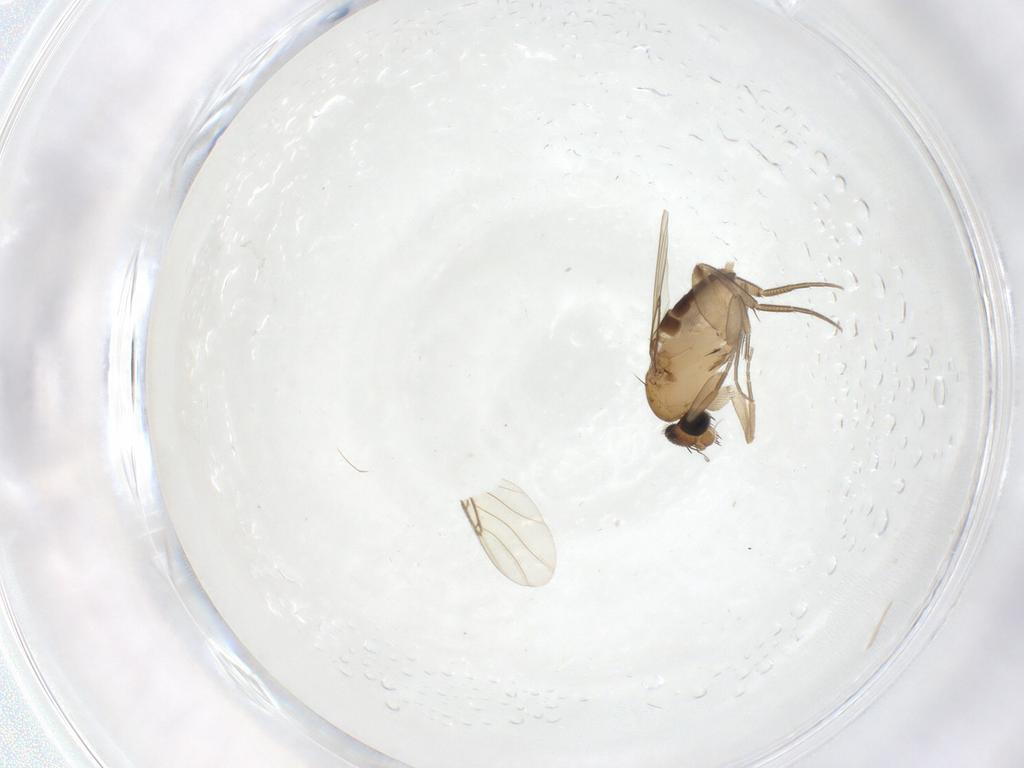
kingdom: Animalia
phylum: Arthropoda
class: Insecta
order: Diptera
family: Phoridae
